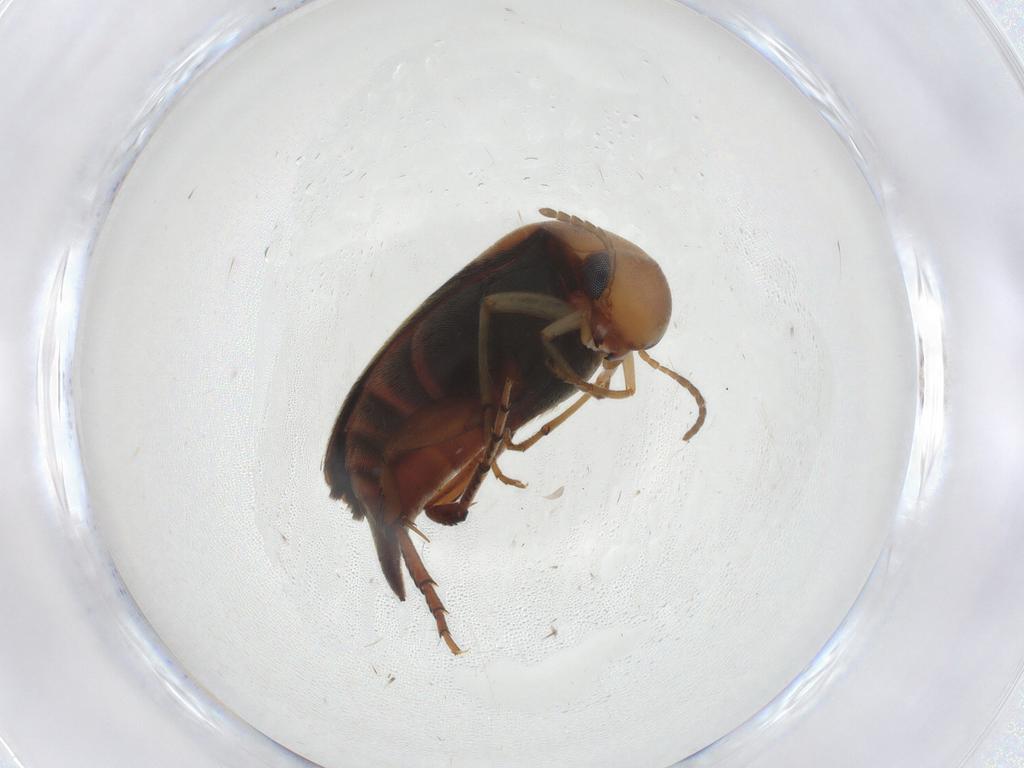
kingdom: Animalia
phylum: Arthropoda
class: Insecta
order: Coleoptera
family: Mordellidae
